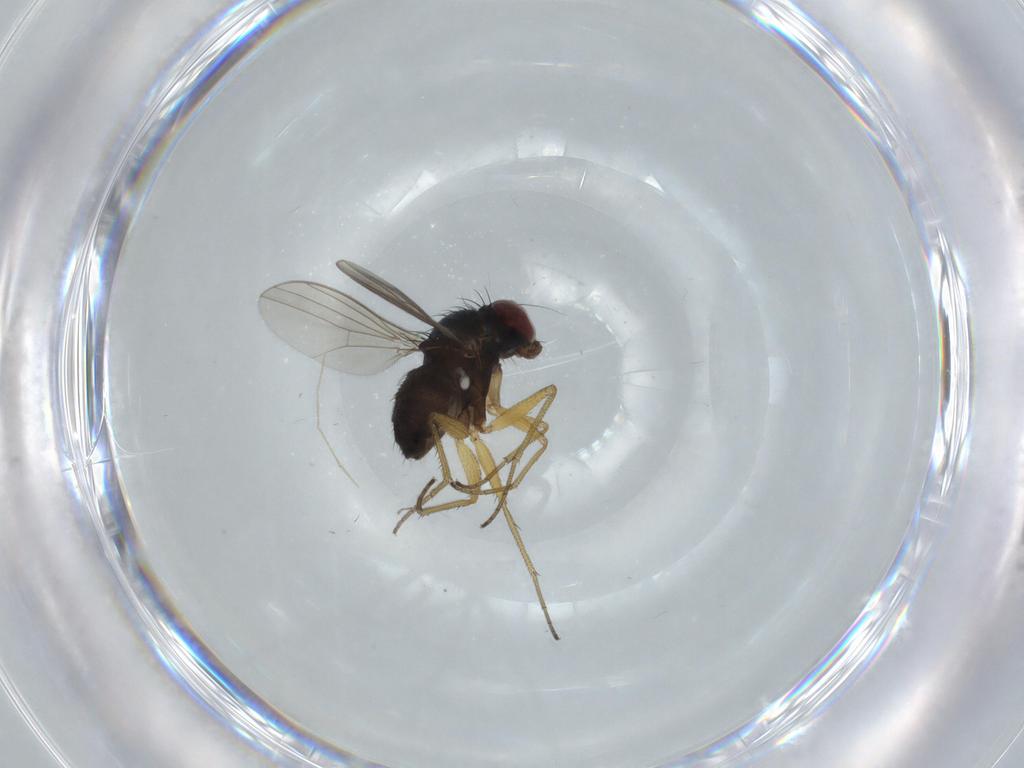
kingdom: Animalia
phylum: Arthropoda
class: Insecta
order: Diptera
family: Dolichopodidae
